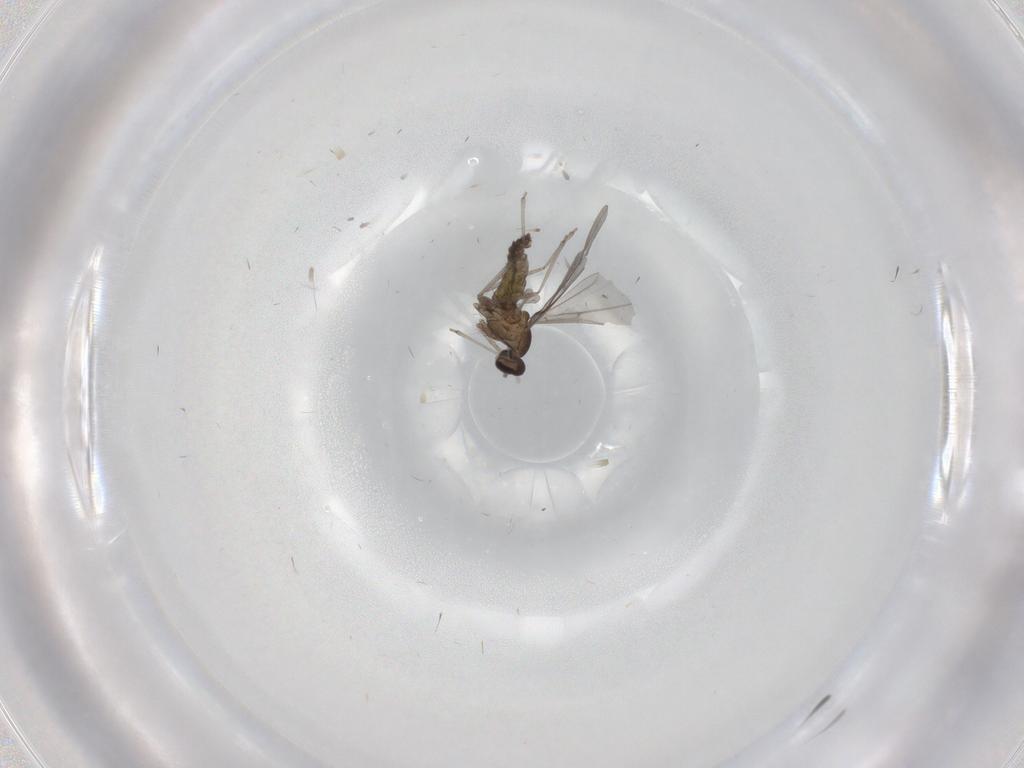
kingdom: Animalia
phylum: Arthropoda
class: Insecta
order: Diptera
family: Cecidomyiidae
